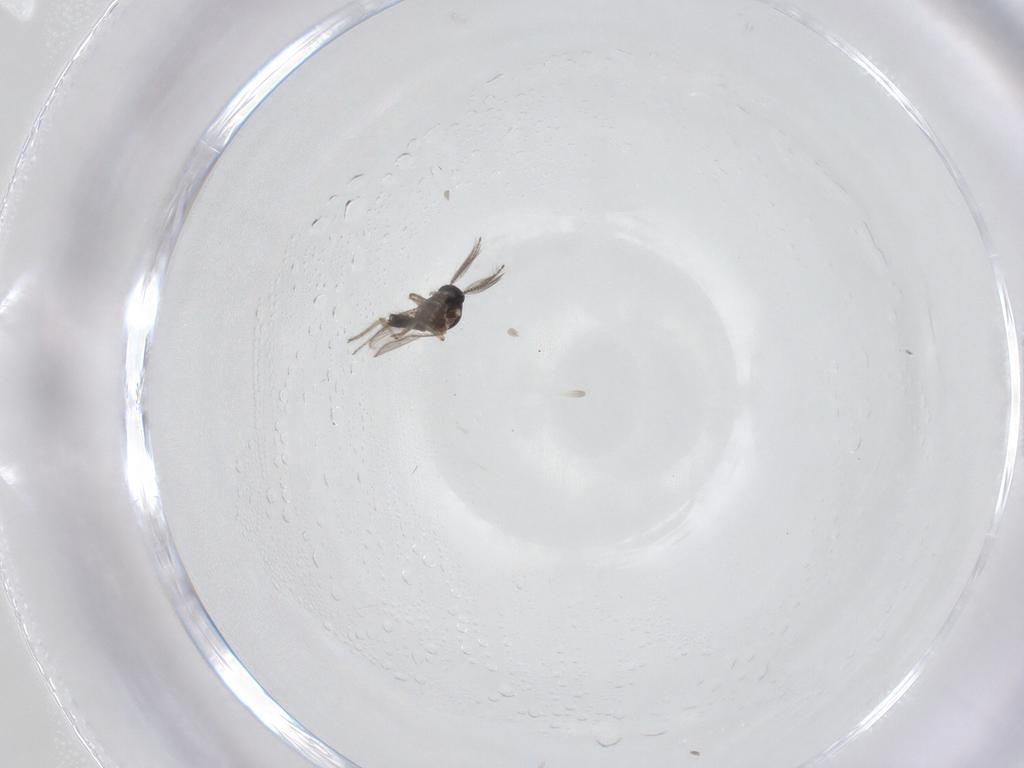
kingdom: Animalia
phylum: Arthropoda
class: Insecta
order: Diptera
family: Ceratopogonidae
